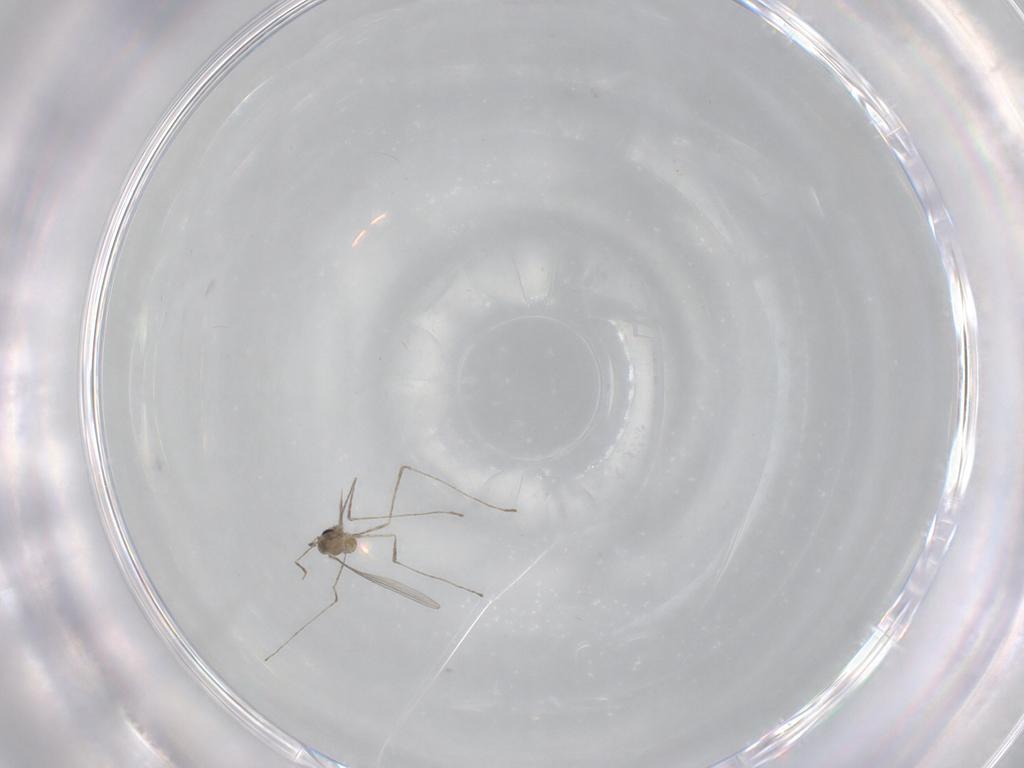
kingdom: Animalia
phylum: Arthropoda
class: Insecta
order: Diptera
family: Cecidomyiidae
